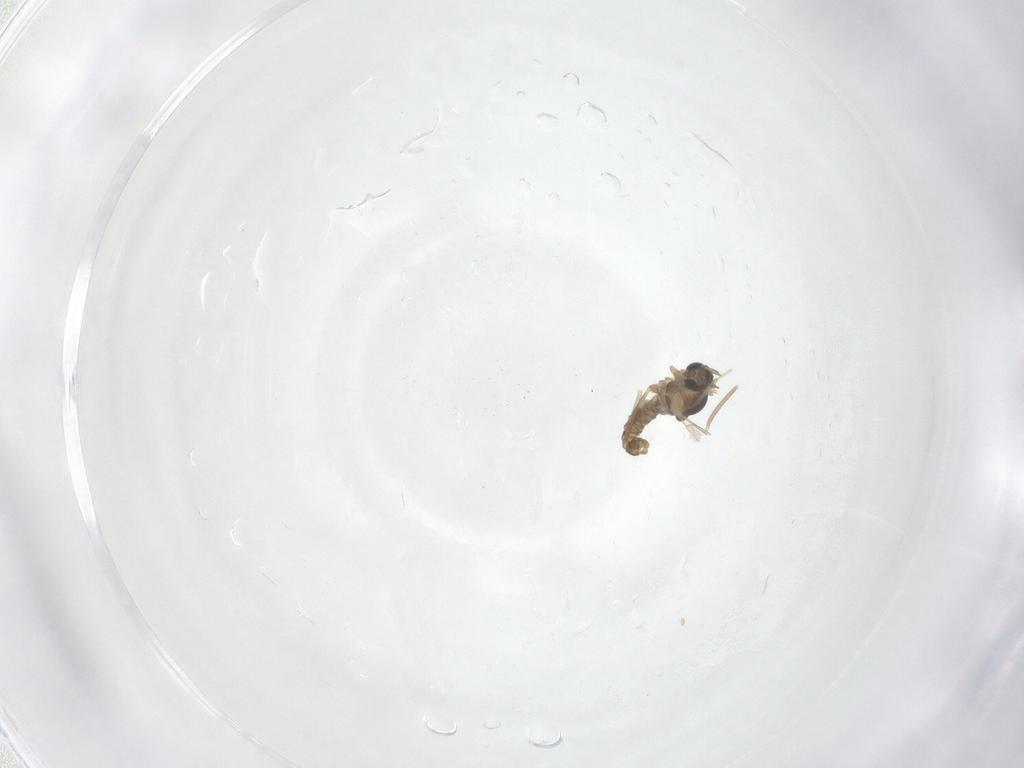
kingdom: Animalia
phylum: Arthropoda
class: Insecta
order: Diptera
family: Cecidomyiidae
